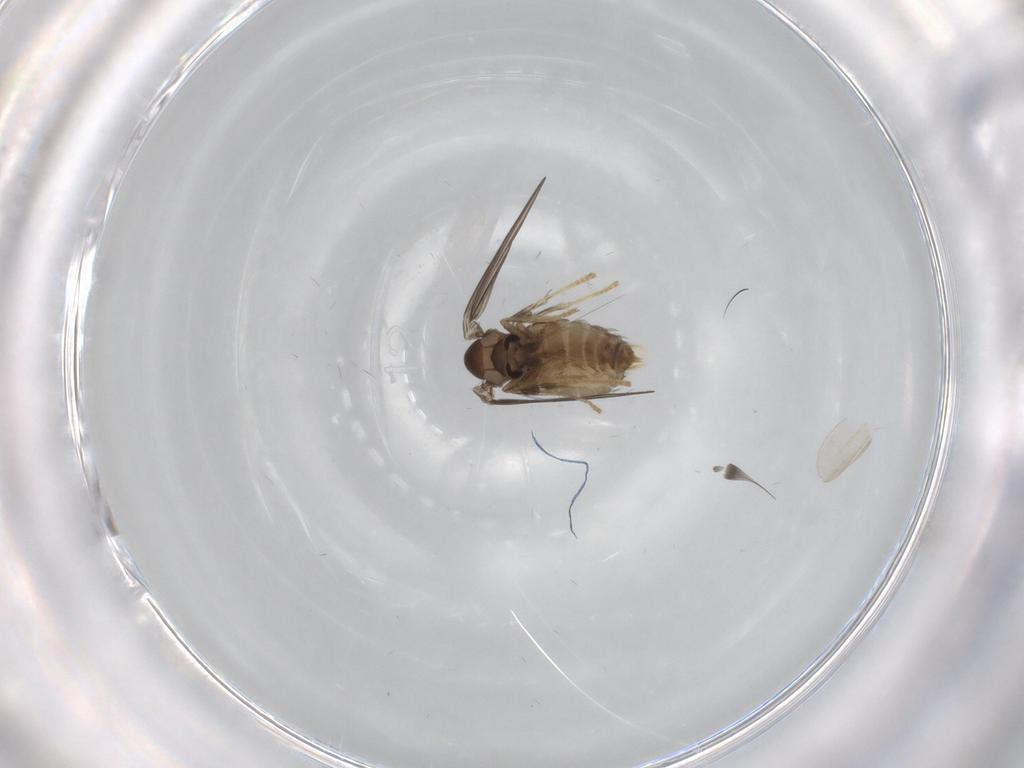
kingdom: Animalia
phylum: Arthropoda
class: Insecta
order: Diptera
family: Psychodidae
